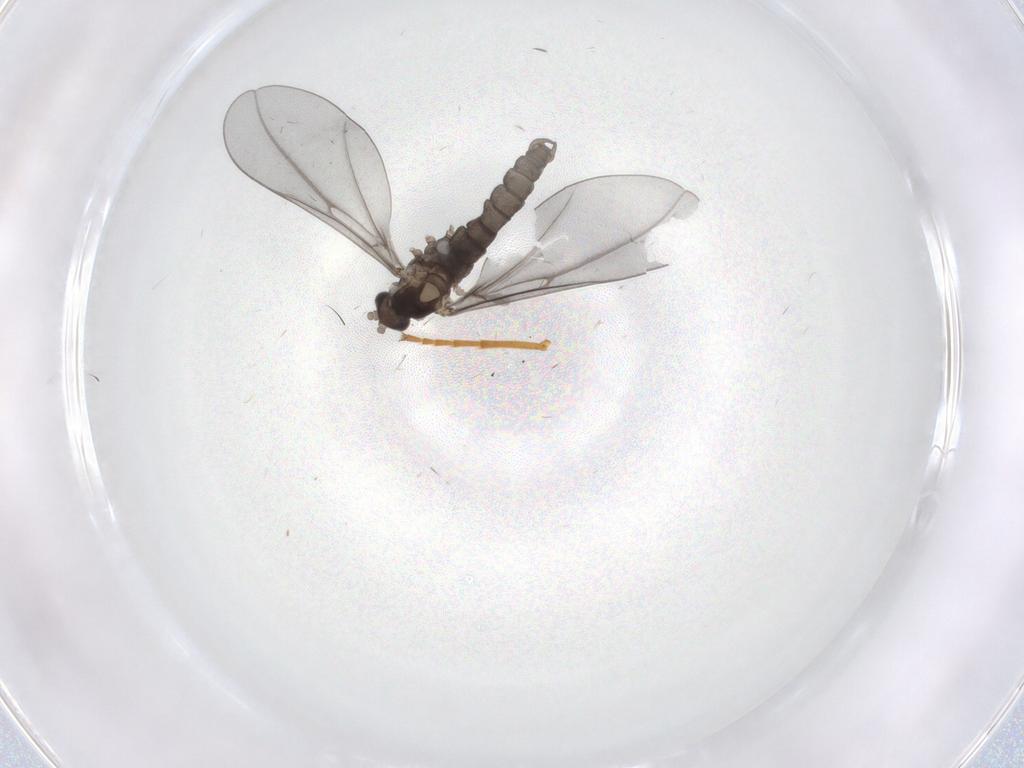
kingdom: Animalia
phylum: Arthropoda
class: Insecta
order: Diptera
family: Cecidomyiidae
